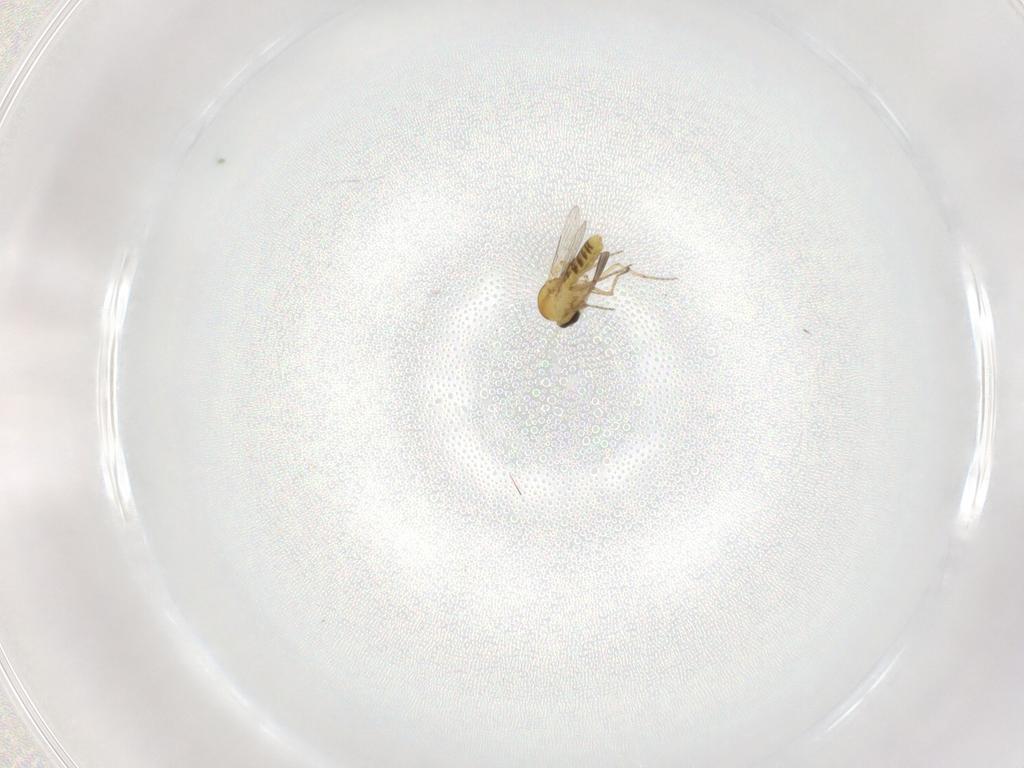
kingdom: Animalia
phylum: Arthropoda
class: Insecta
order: Diptera
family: Ceratopogonidae
